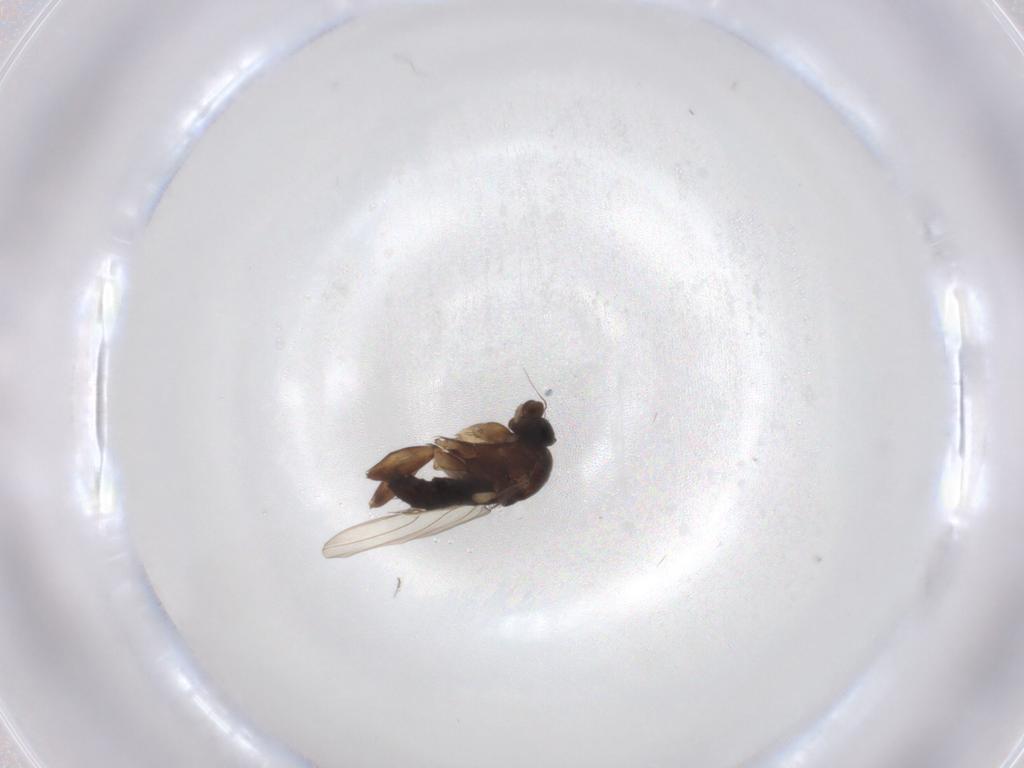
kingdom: Animalia
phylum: Arthropoda
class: Insecta
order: Diptera
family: Phoridae
